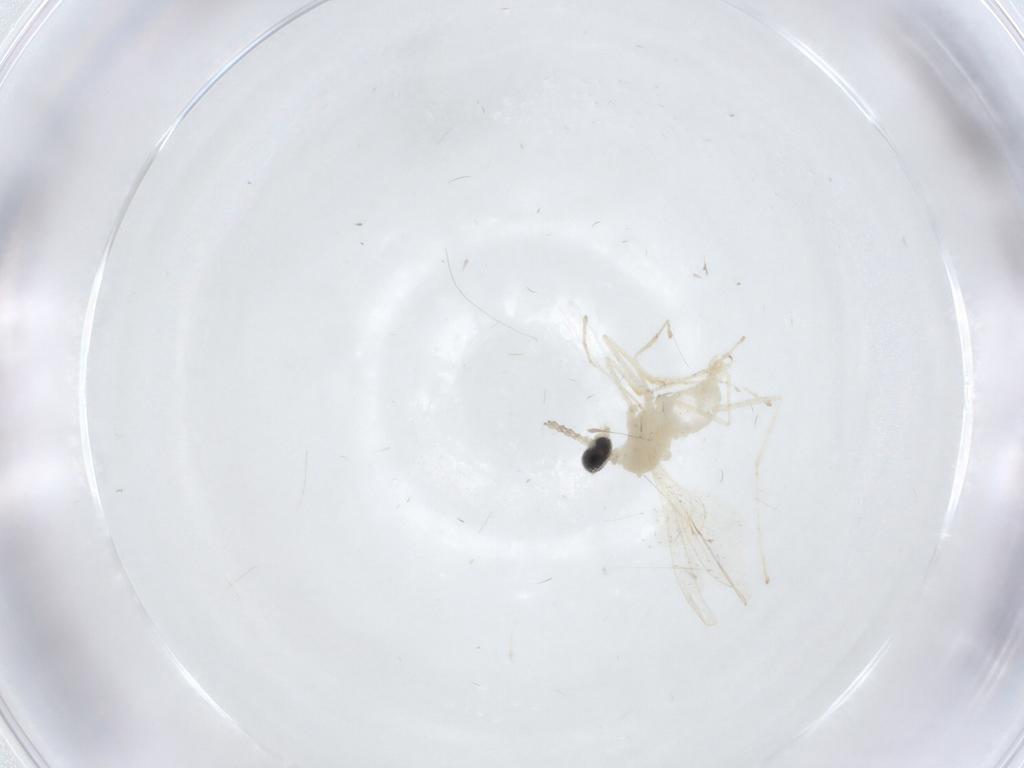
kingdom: Animalia
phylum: Arthropoda
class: Insecta
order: Diptera
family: Cecidomyiidae
